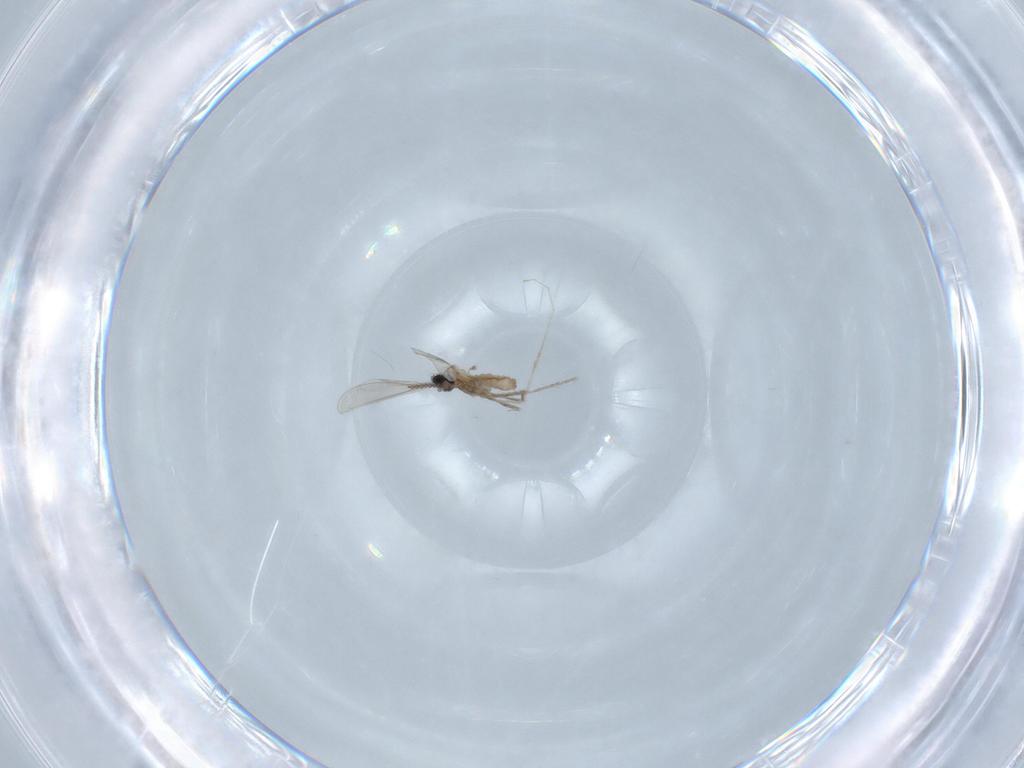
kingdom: Animalia
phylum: Arthropoda
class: Insecta
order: Diptera
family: Cecidomyiidae
